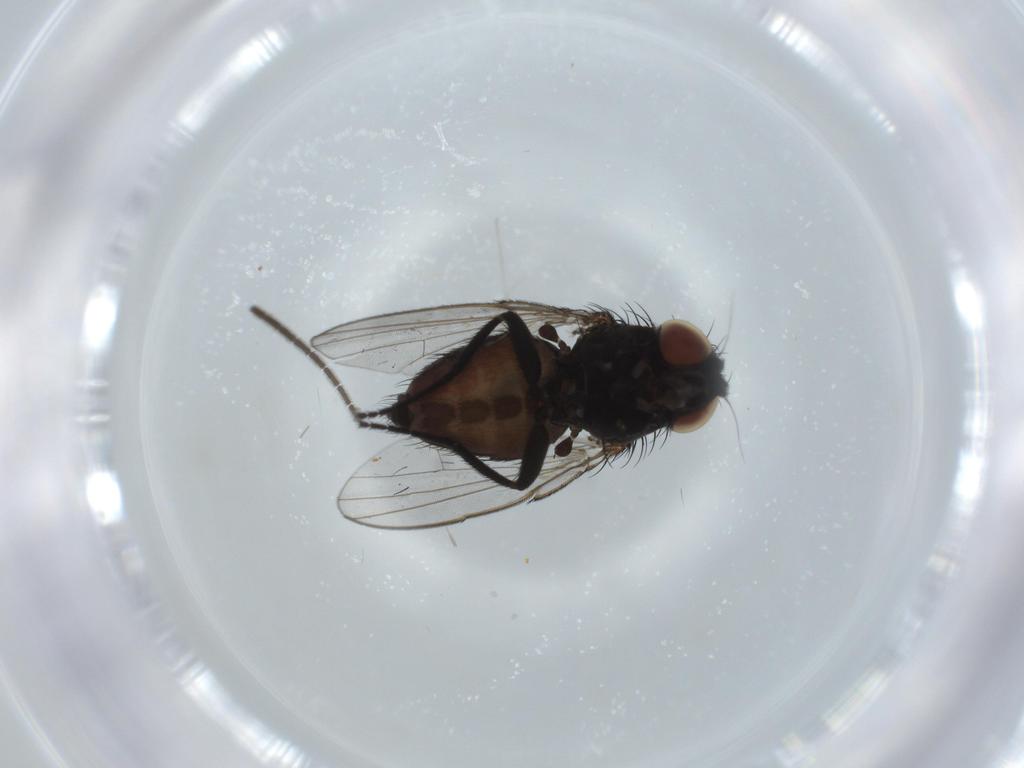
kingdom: Animalia
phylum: Arthropoda
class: Insecta
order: Diptera
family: Milichiidae
